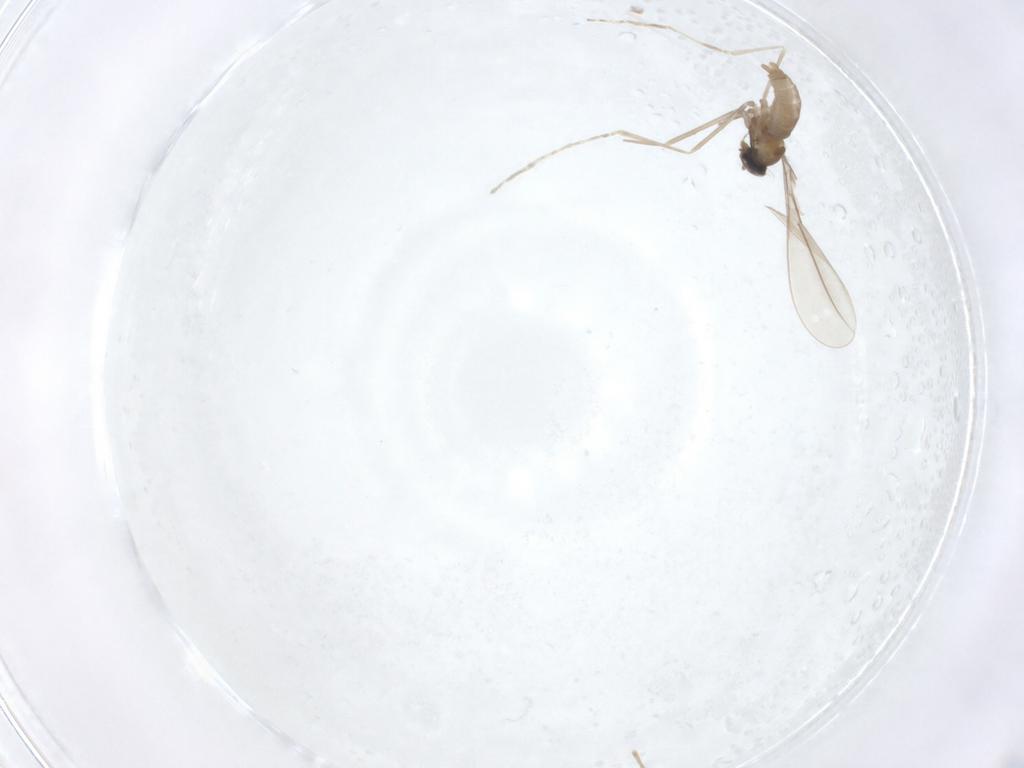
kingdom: Animalia
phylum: Arthropoda
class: Insecta
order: Diptera
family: Cecidomyiidae
